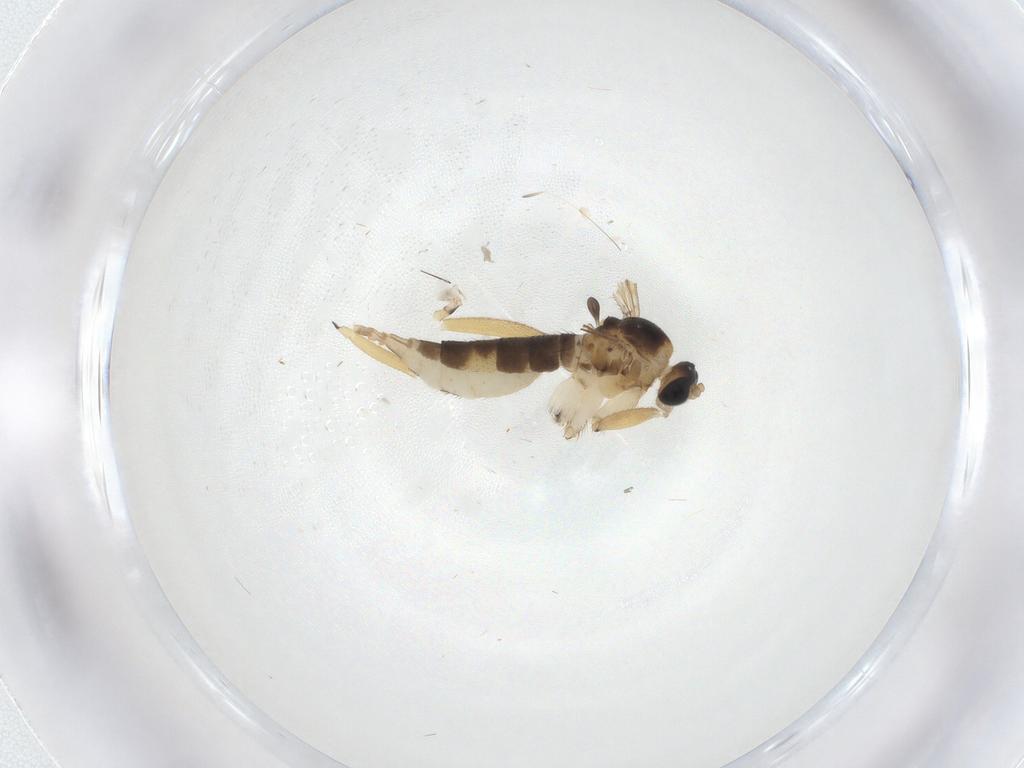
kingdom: Animalia
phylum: Arthropoda
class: Insecta
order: Diptera
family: Sciaridae
